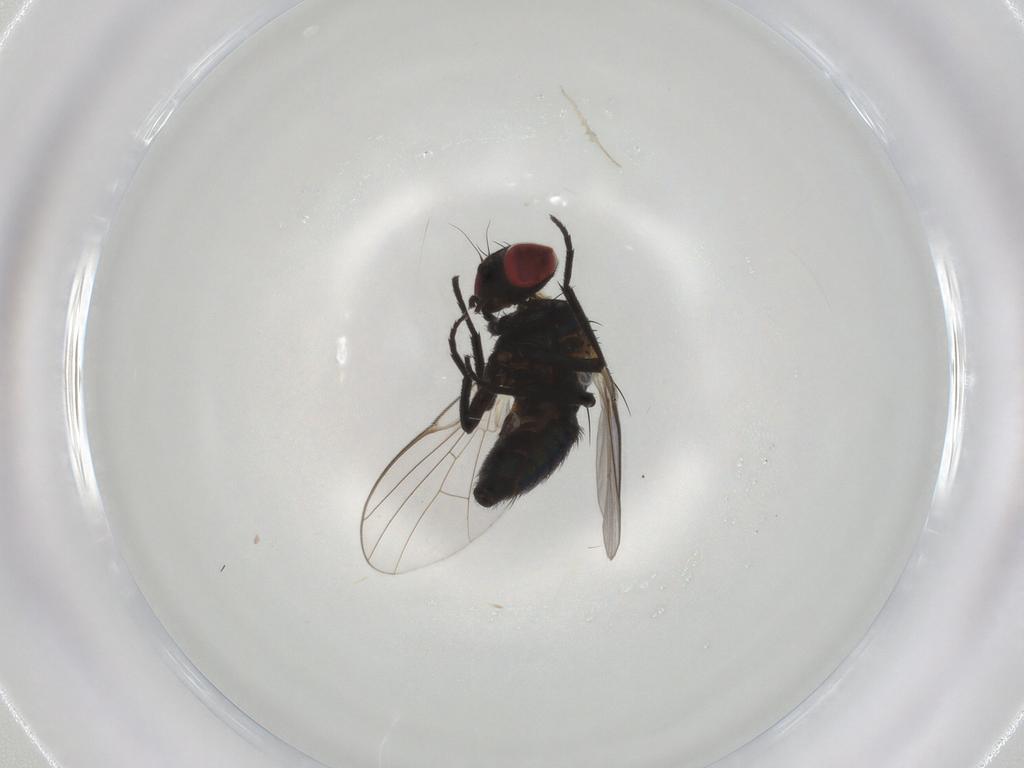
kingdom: Animalia
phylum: Arthropoda
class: Insecta
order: Diptera
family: Agromyzidae
